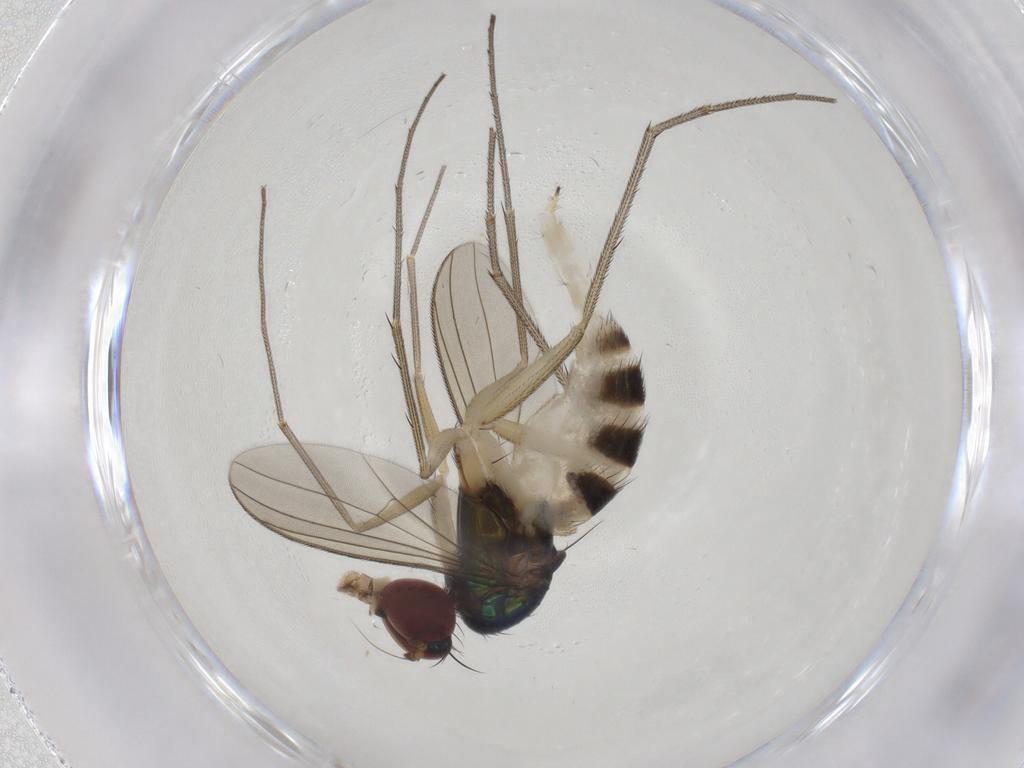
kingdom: Animalia
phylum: Arthropoda
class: Insecta
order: Diptera
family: Dolichopodidae
